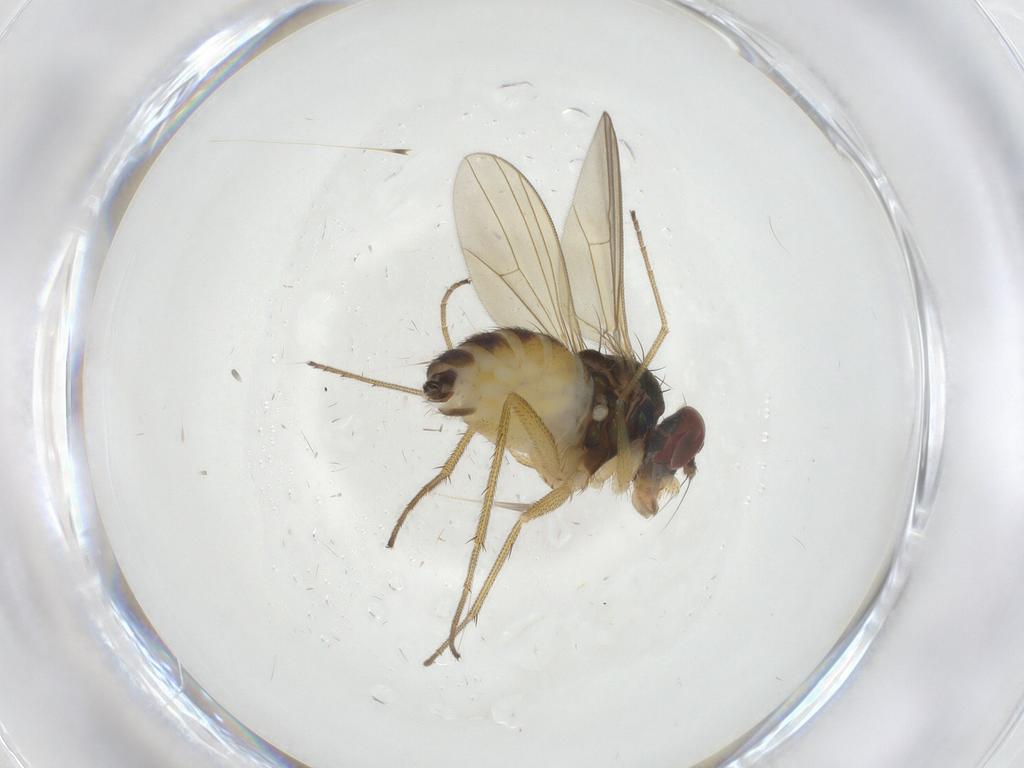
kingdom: Animalia
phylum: Arthropoda
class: Insecta
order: Diptera
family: Dolichopodidae
